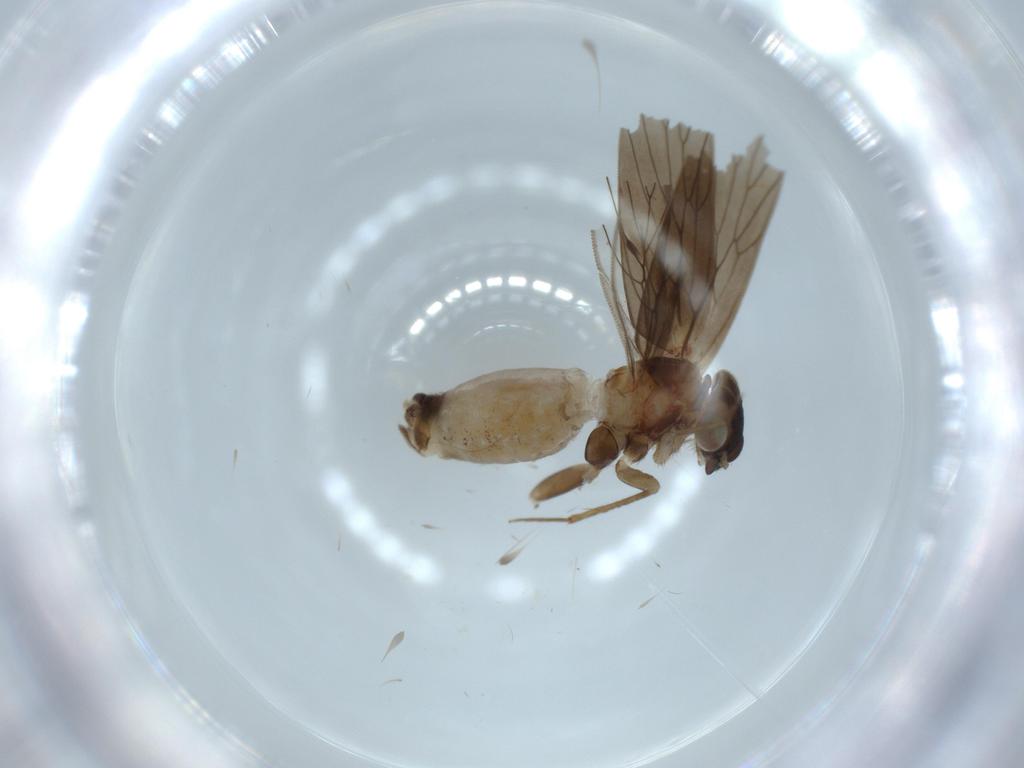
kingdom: Animalia
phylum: Arthropoda
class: Insecta
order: Psocodea
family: Lepidopsocidae
